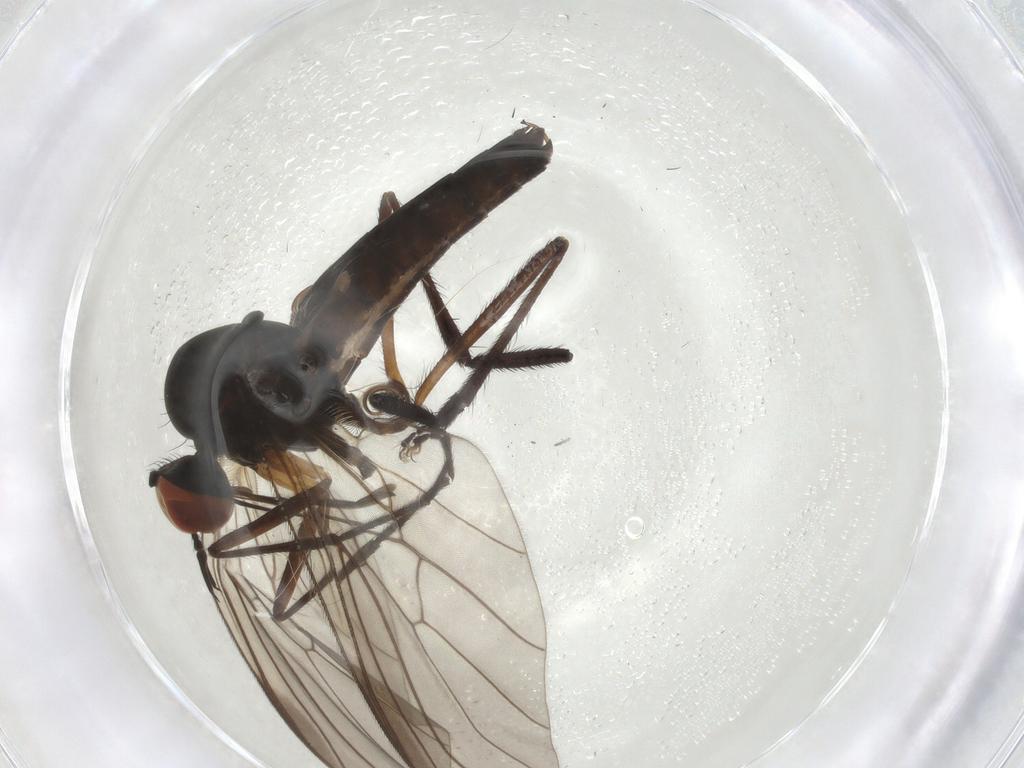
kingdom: Animalia
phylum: Arthropoda
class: Insecta
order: Diptera
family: Empididae
